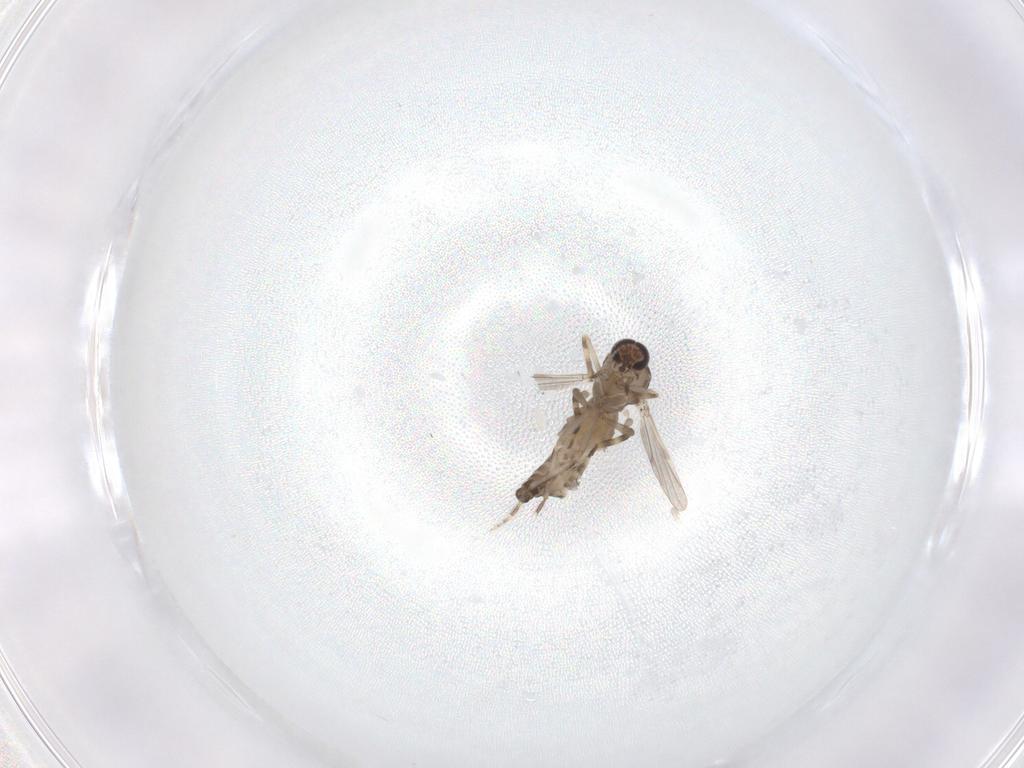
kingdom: Animalia
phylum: Arthropoda
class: Insecta
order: Diptera
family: Ceratopogonidae
